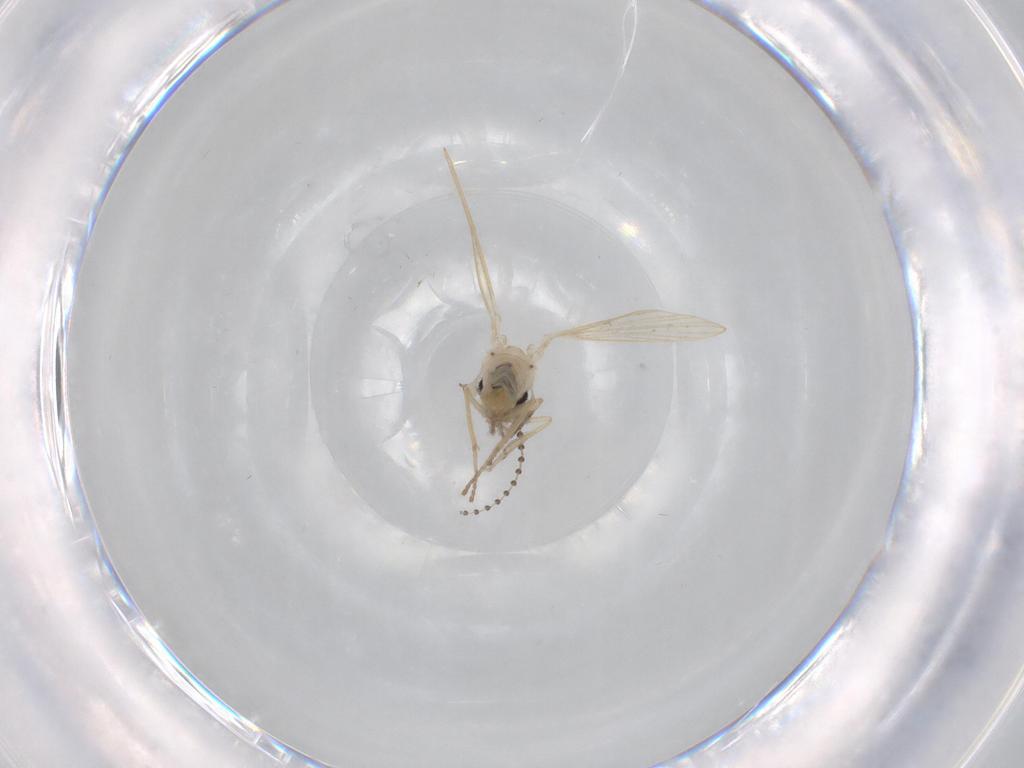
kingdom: Animalia
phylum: Arthropoda
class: Insecta
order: Diptera
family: Psychodidae
